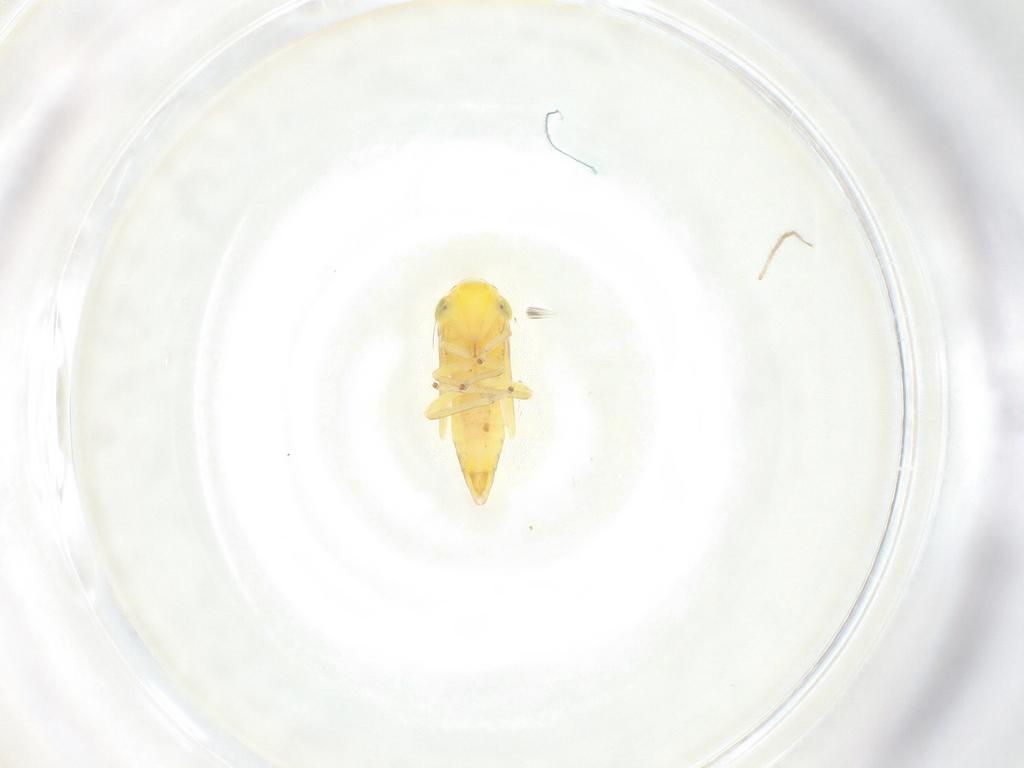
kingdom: Animalia
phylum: Arthropoda
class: Insecta
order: Hemiptera
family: Cicadellidae
